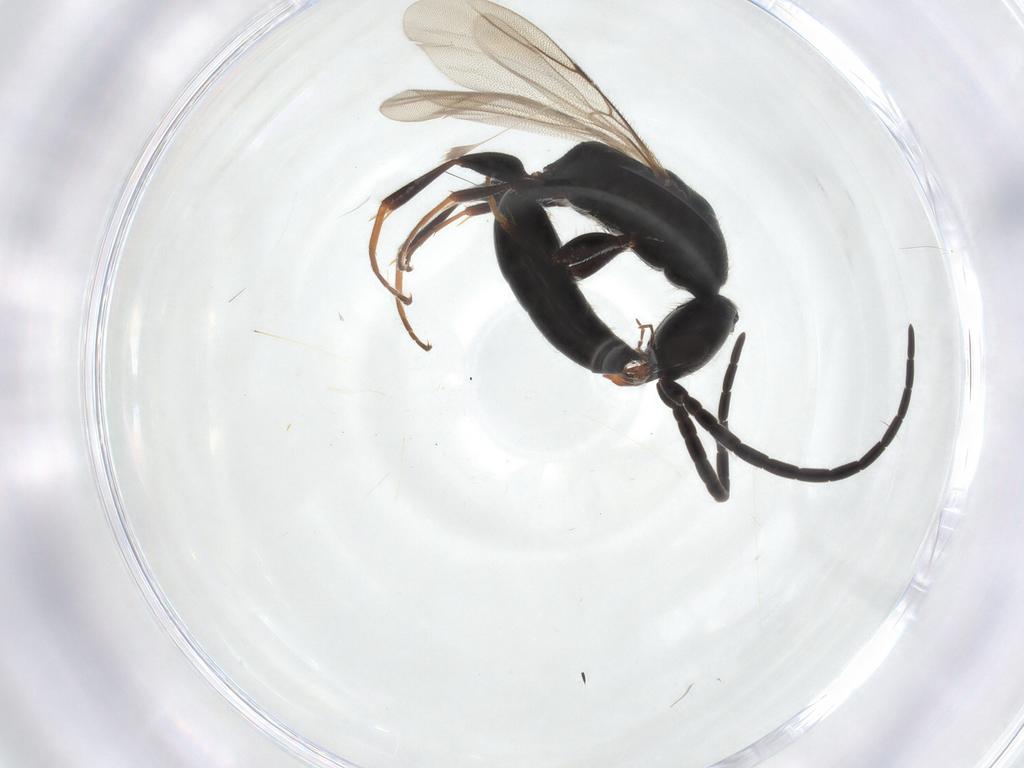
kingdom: Animalia
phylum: Arthropoda
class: Insecta
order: Hymenoptera
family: Bethylidae
